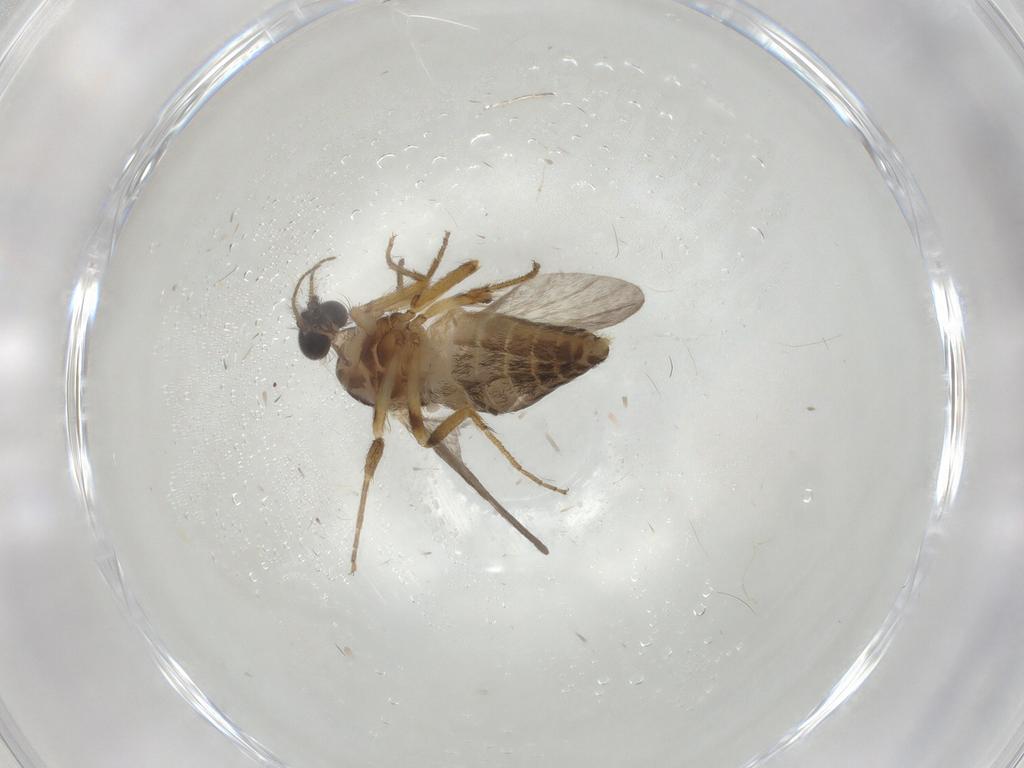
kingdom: Animalia
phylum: Arthropoda
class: Insecta
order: Diptera
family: Ceratopogonidae
